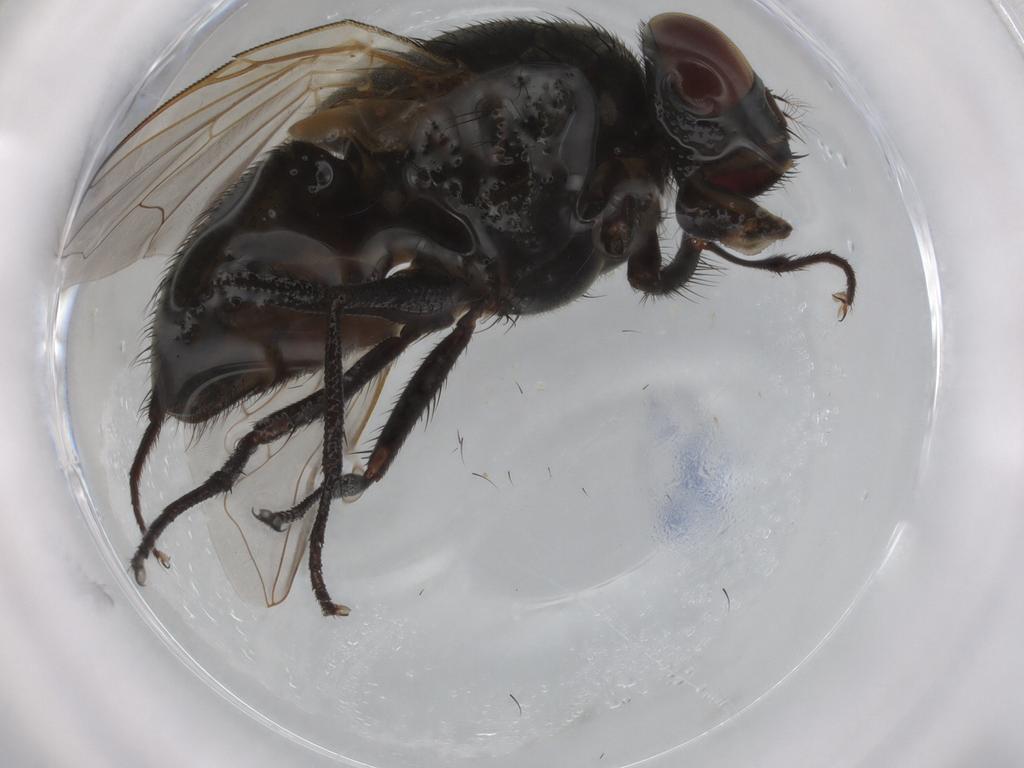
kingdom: Animalia
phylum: Arthropoda
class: Insecta
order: Diptera
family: Muscidae
